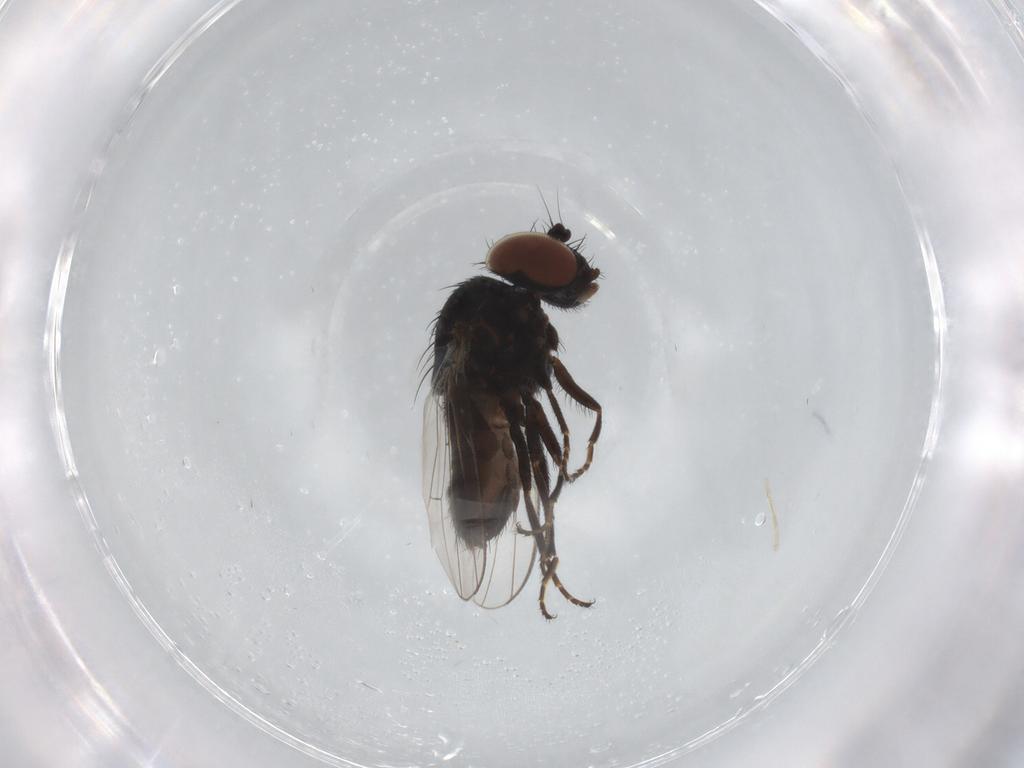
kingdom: Animalia
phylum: Arthropoda
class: Insecta
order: Diptera
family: Milichiidae
